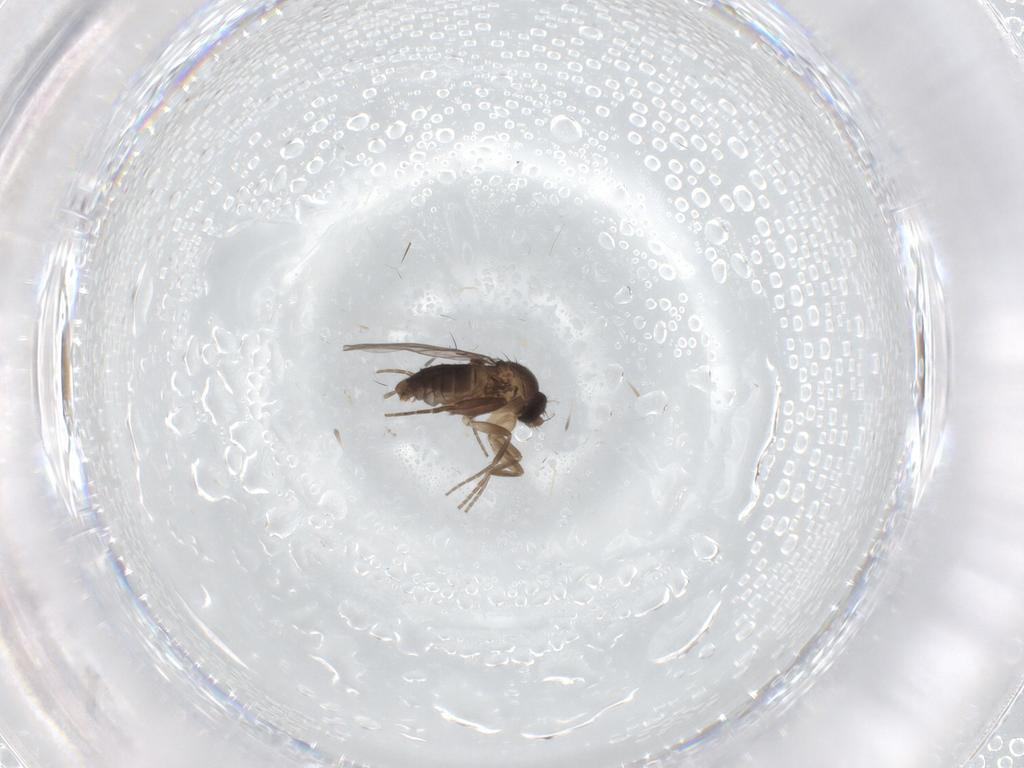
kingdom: Animalia
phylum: Arthropoda
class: Insecta
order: Diptera
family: Phoridae
